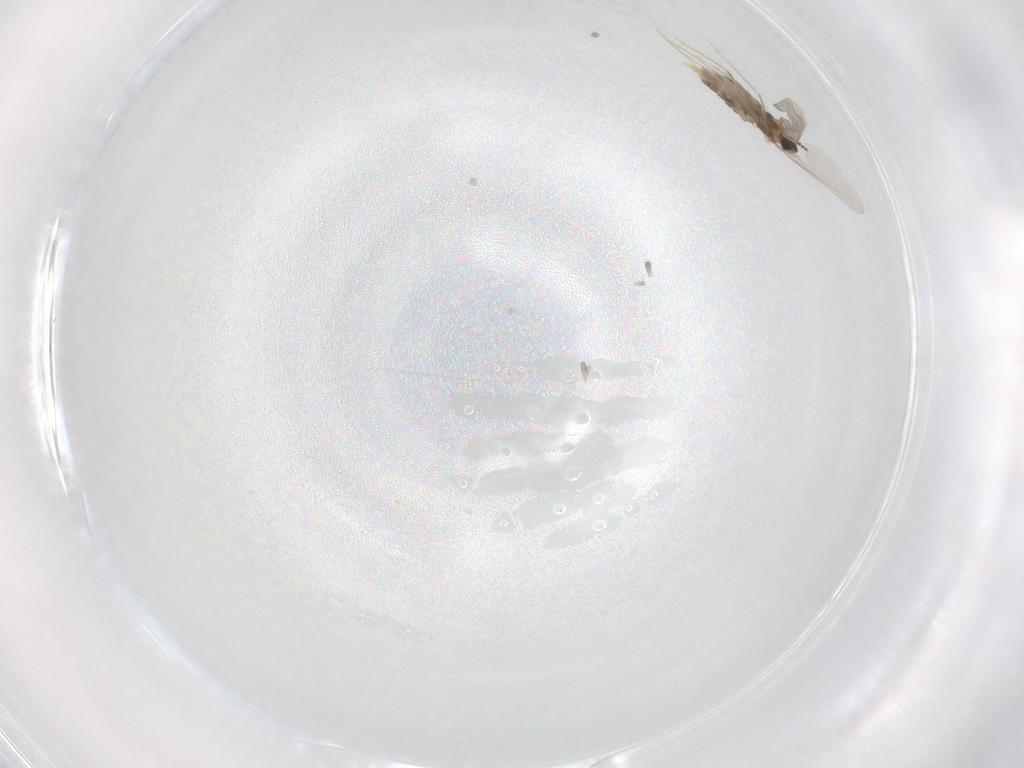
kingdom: Animalia
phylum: Arthropoda
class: Insecta
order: Diptera
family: Cecidomyiidae
